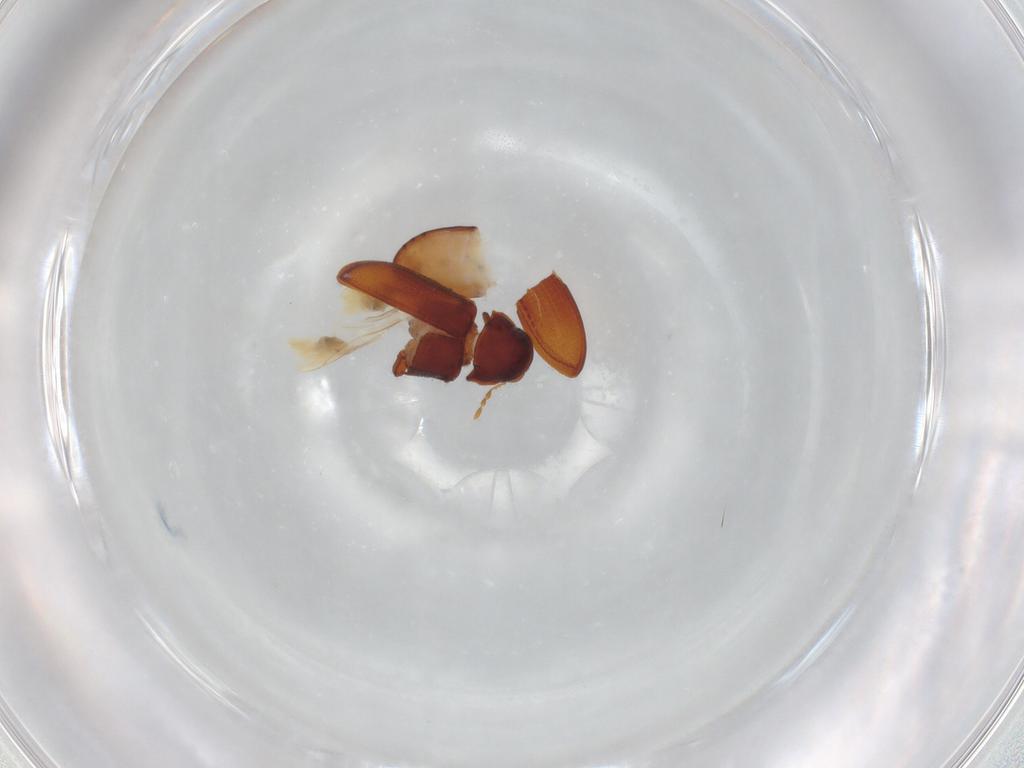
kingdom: Animalia
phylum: Arthropoda
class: Insecta
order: Coleoptera
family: Ptinidae
